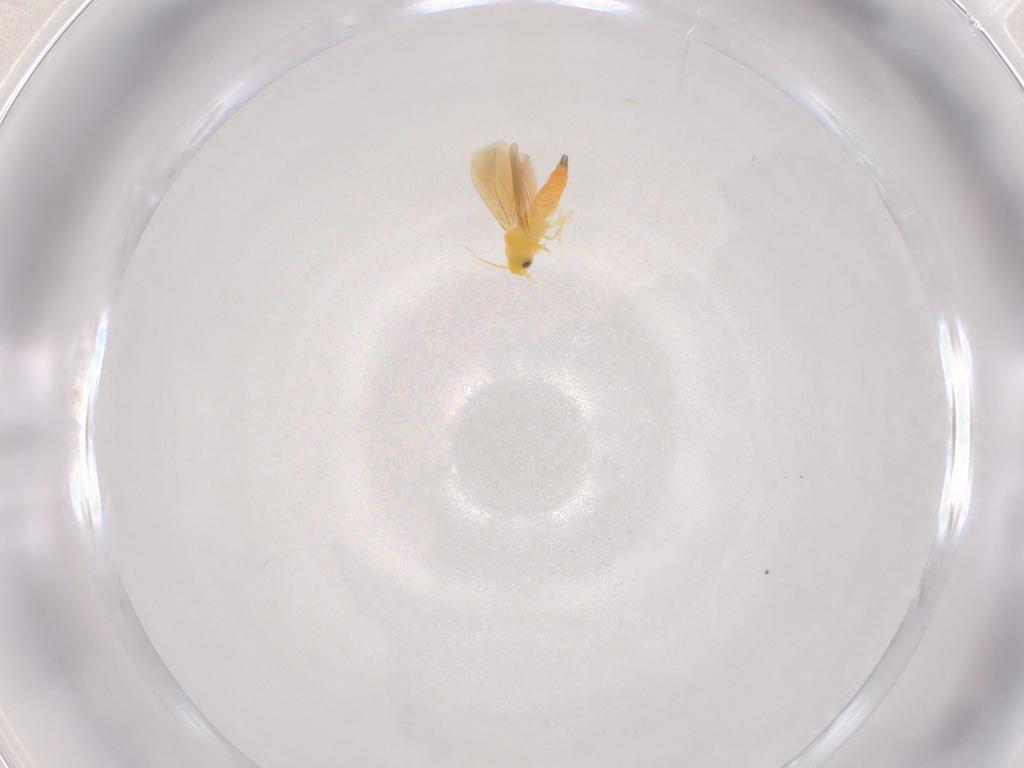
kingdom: Animalia
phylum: Arthropoda
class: Insecta
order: Hemiptera
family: Aleyrodidae
